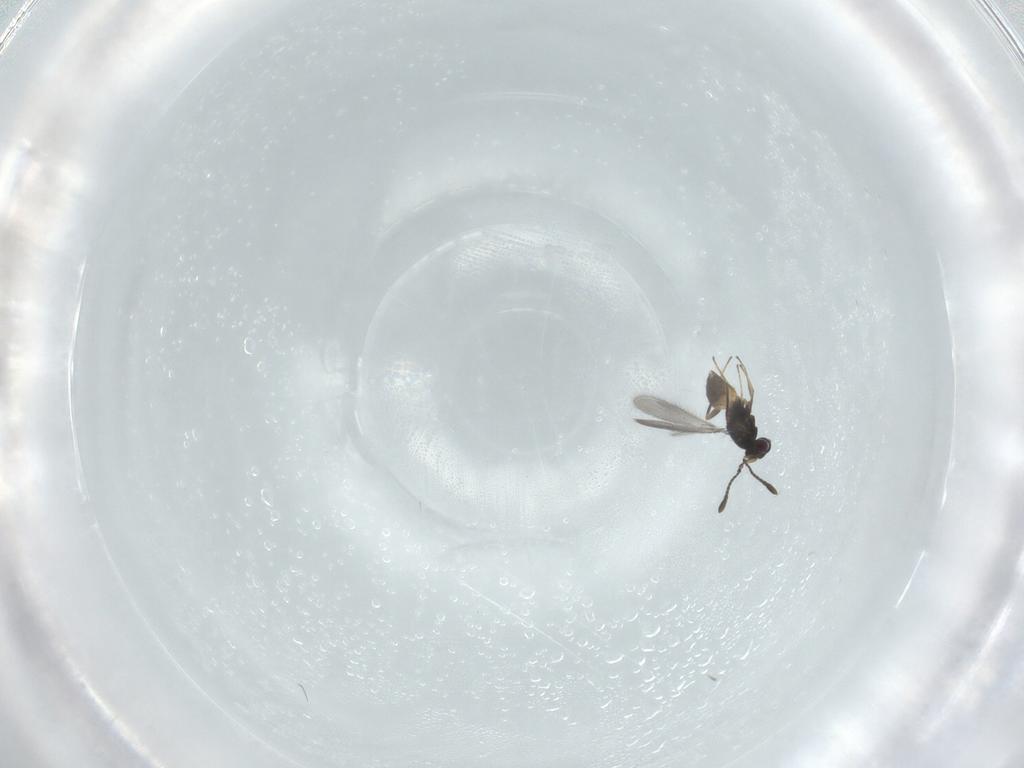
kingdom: Animalia
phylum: Arthropoda
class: Insecta
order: Hymenoptera
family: Mymaridae
